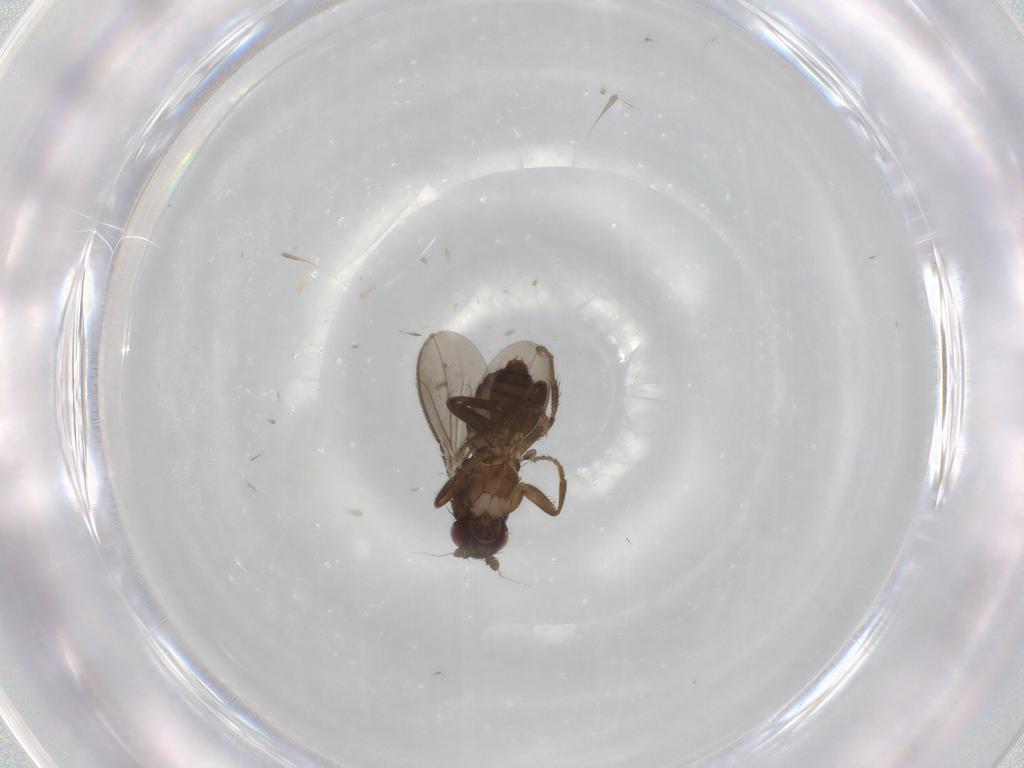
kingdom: Animalia
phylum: Arthropoda
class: Insecta
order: Diptera
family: Sphaeroceridae
